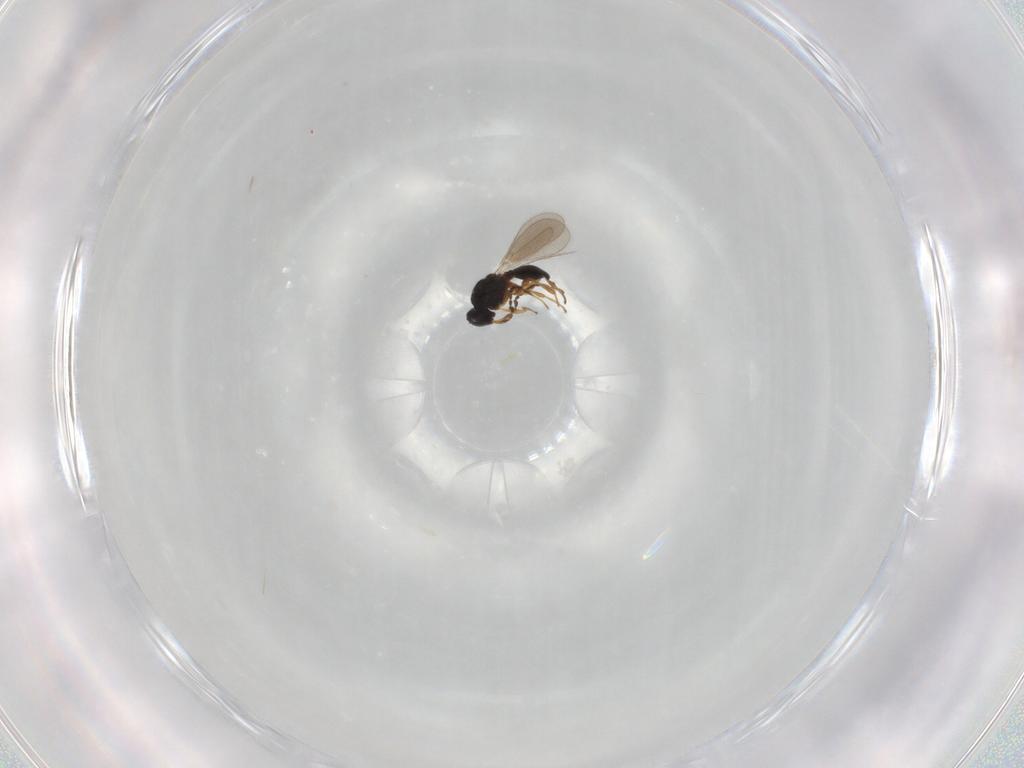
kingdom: Animalia
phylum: Arthropoda
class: Insecta
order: Hymenoptera
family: Platygastridae
